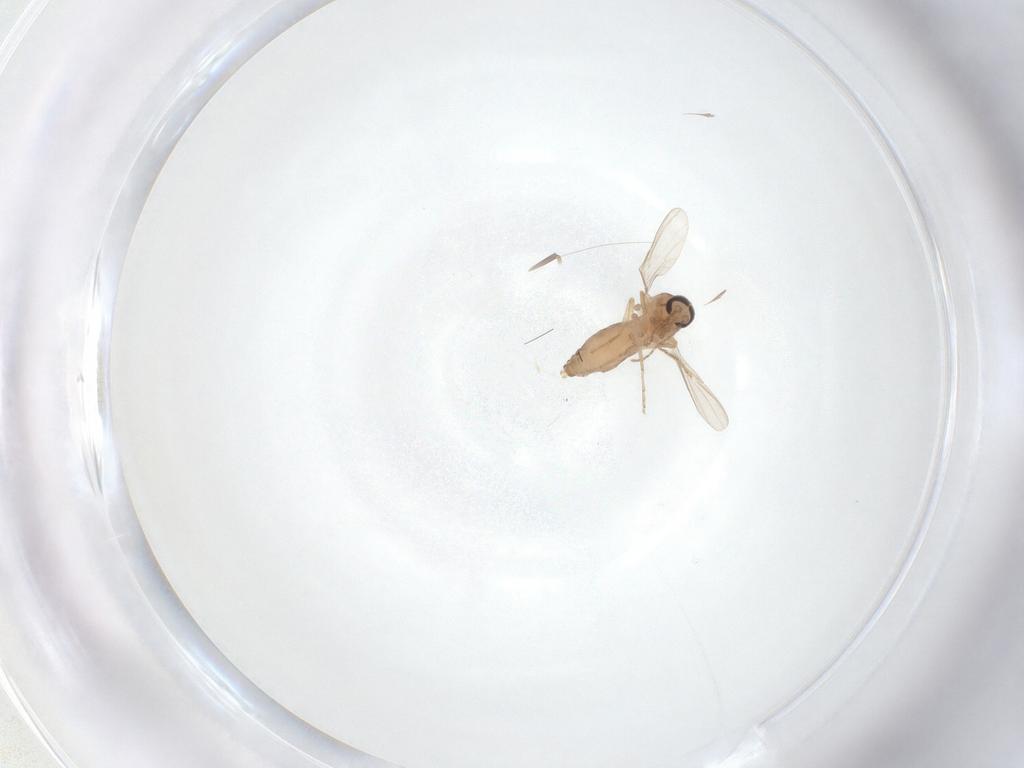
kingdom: Animalia
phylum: Arthropoda
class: Insecta
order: Diptera
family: Ceratopogonidae
